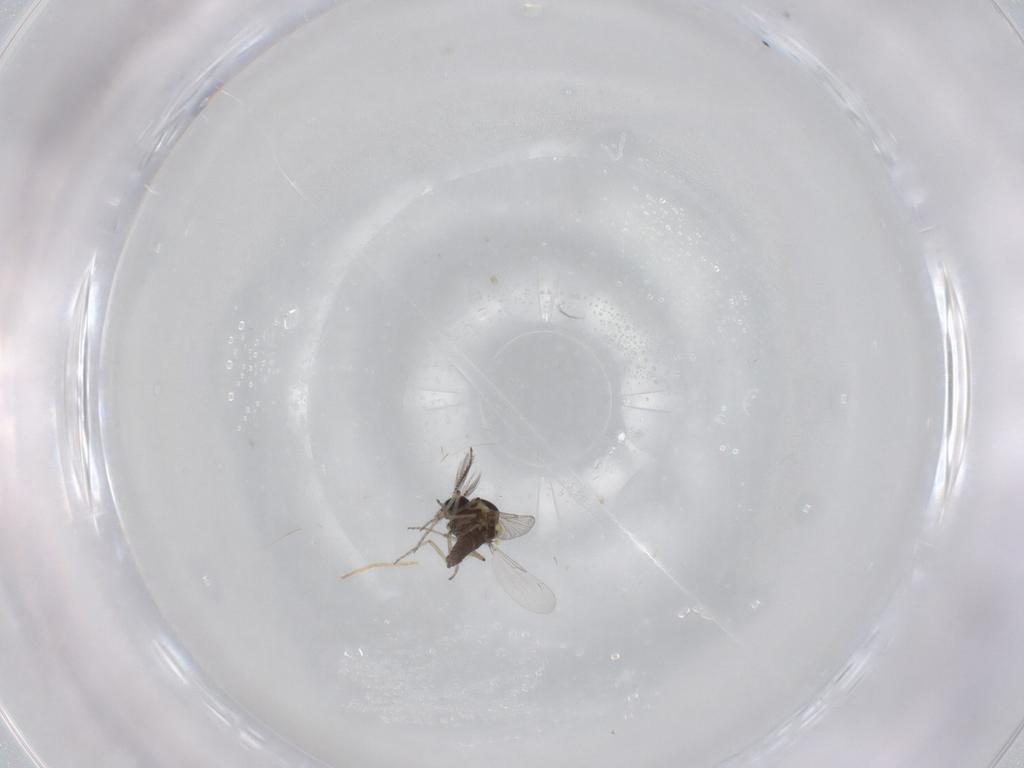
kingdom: Animalia
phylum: Arthropoda
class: Insecta
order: Diptera
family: Ceratopogonidae
